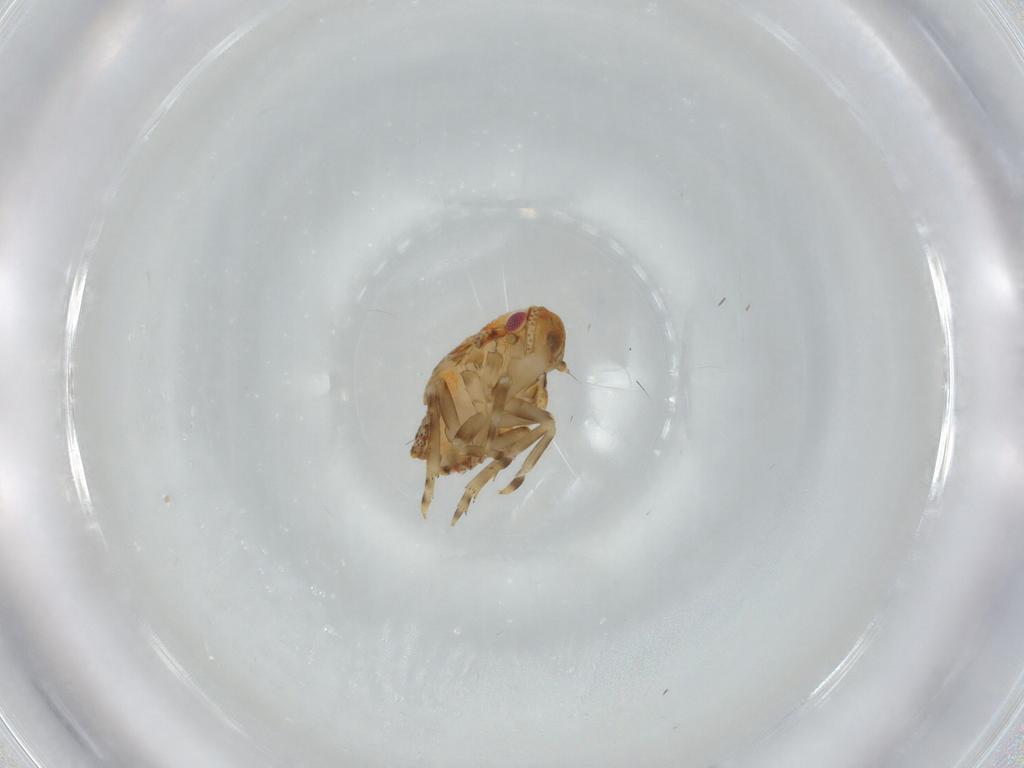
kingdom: Animalia
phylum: Arthropoda
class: Insecta
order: Hemiptera
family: Flatidae
